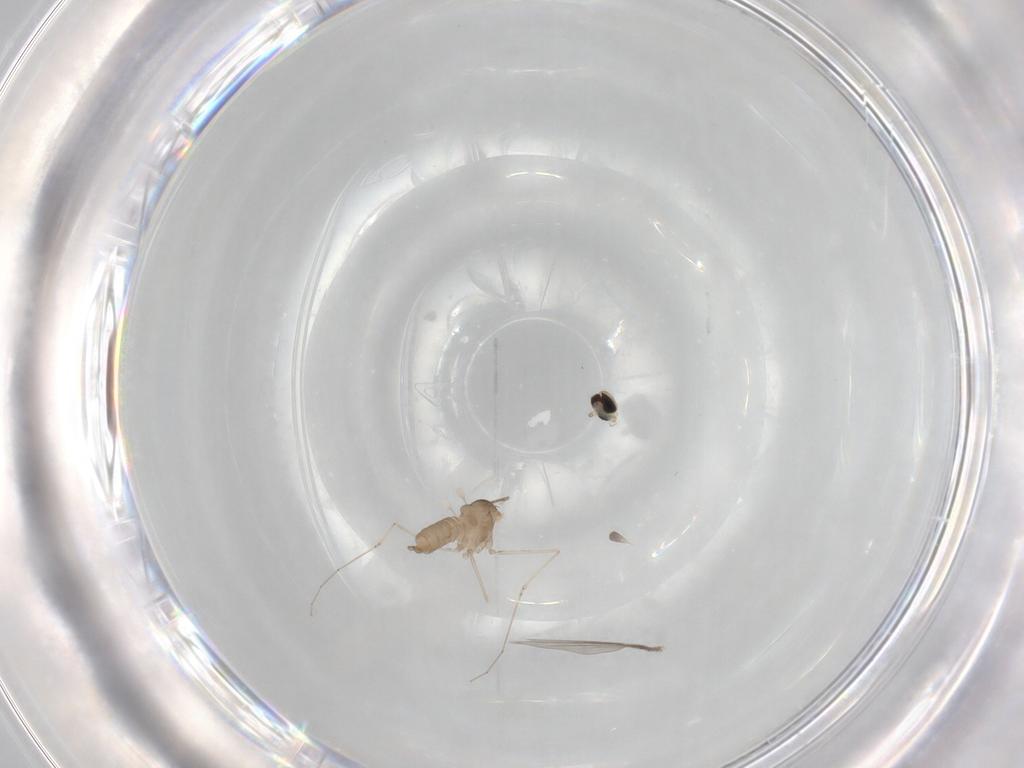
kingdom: Animalia
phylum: Arthropoda
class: Insecta
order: Diptera
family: Cecidomyiidae
